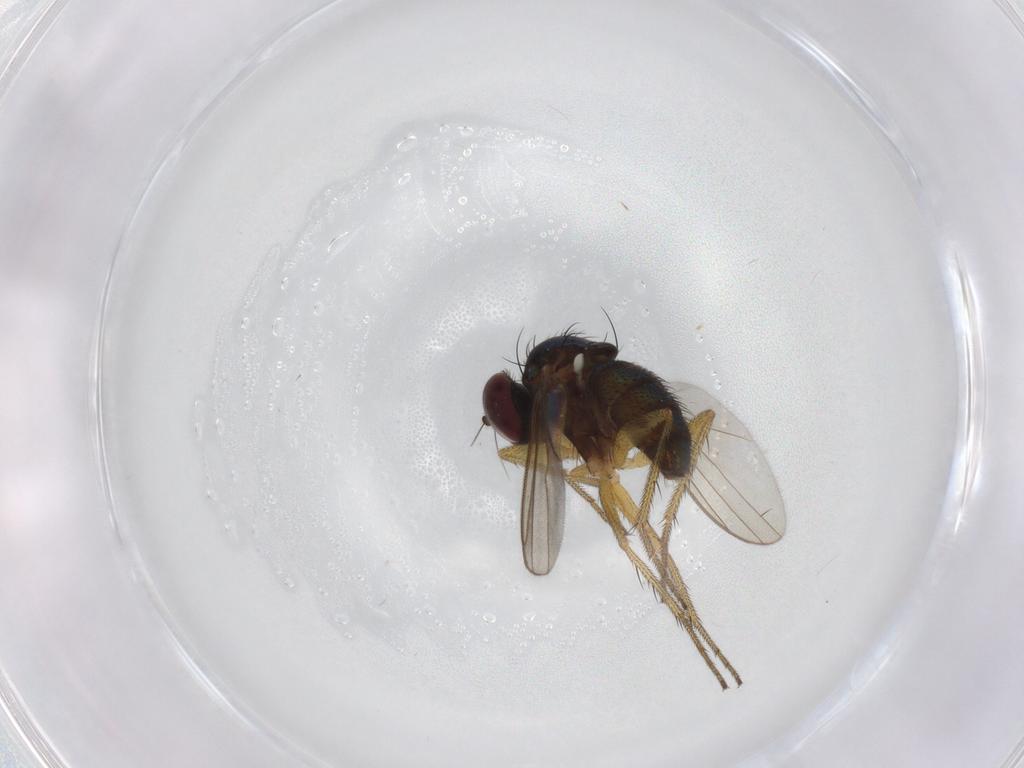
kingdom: Animalia
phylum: Arthropoda
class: Insecta
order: Diptera
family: Dolichopodidae
